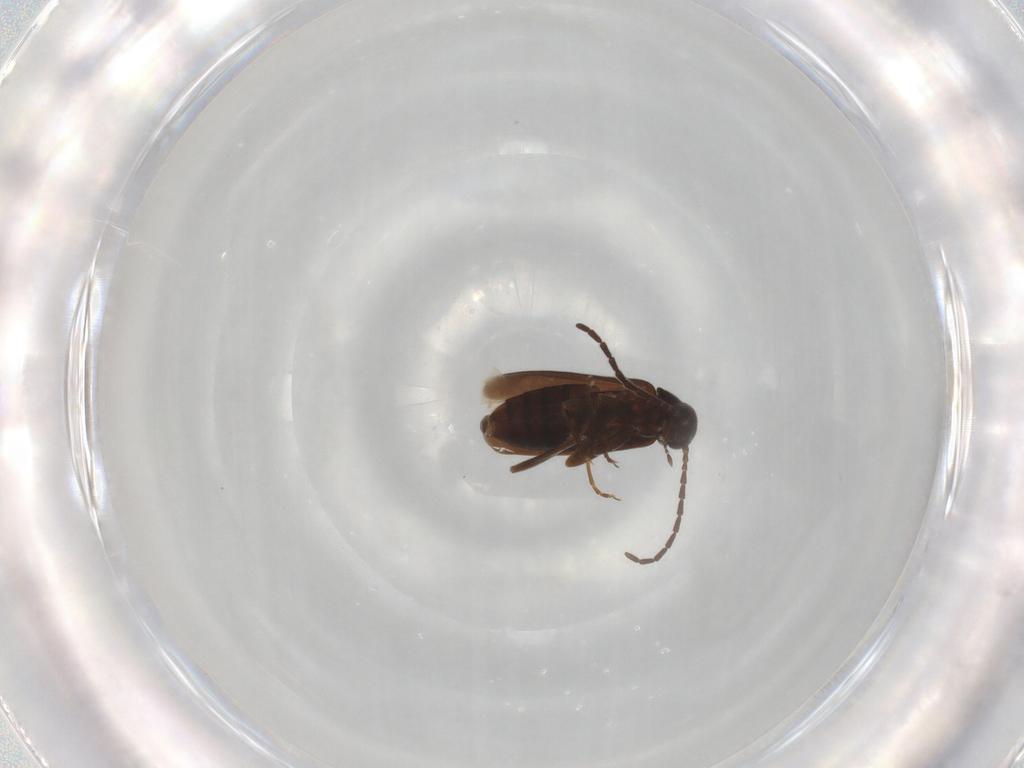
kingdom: Animalia
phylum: Arthropoda
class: Insecta
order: Coleoptera
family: Scraptiidae
